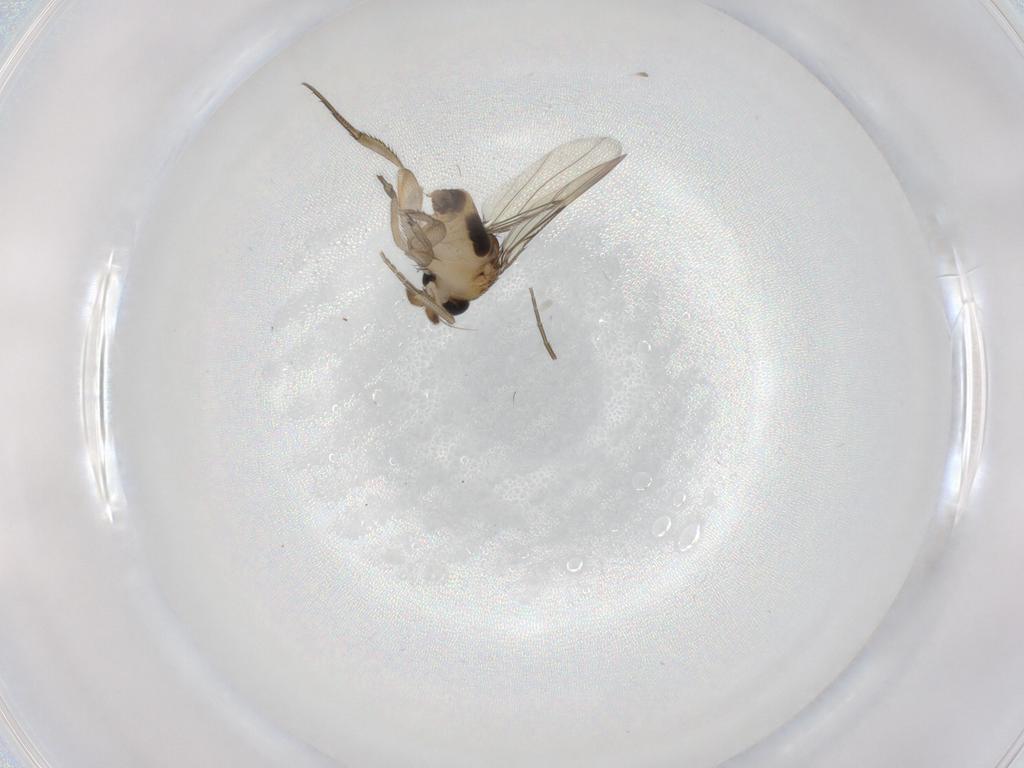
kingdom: Animalia
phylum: Arthropoda
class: Insecta
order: Diptera
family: Phoridae
